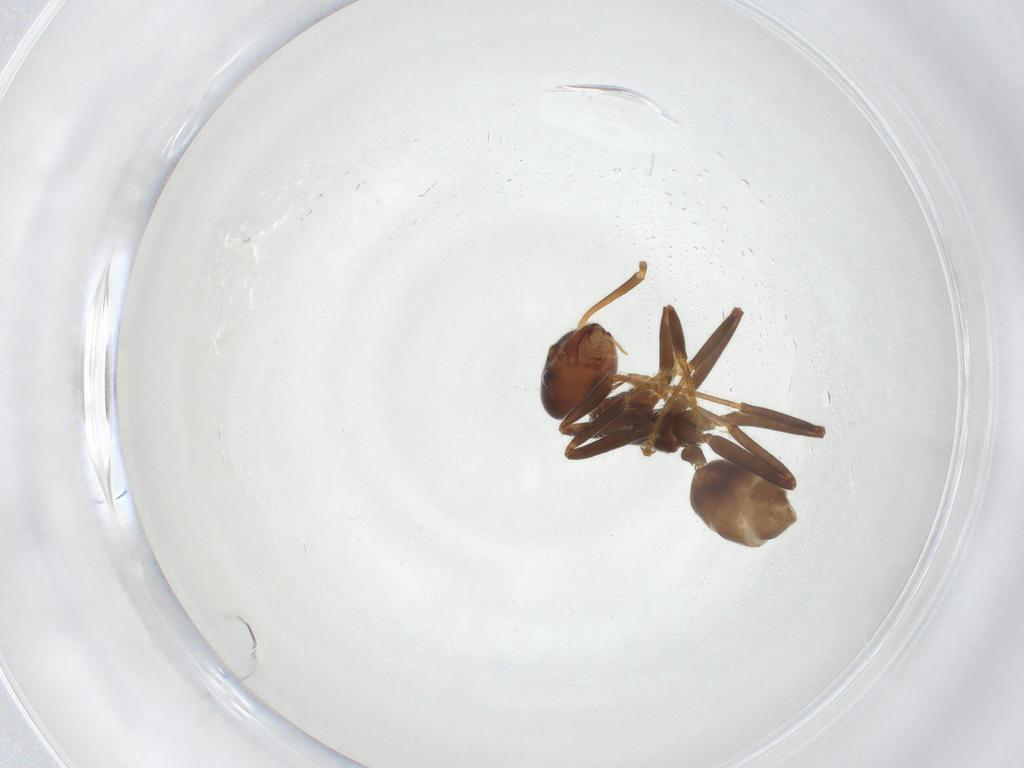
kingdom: Animalia
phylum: Arthropoda
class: Insecta
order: Hymenoptera
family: Formicidae
